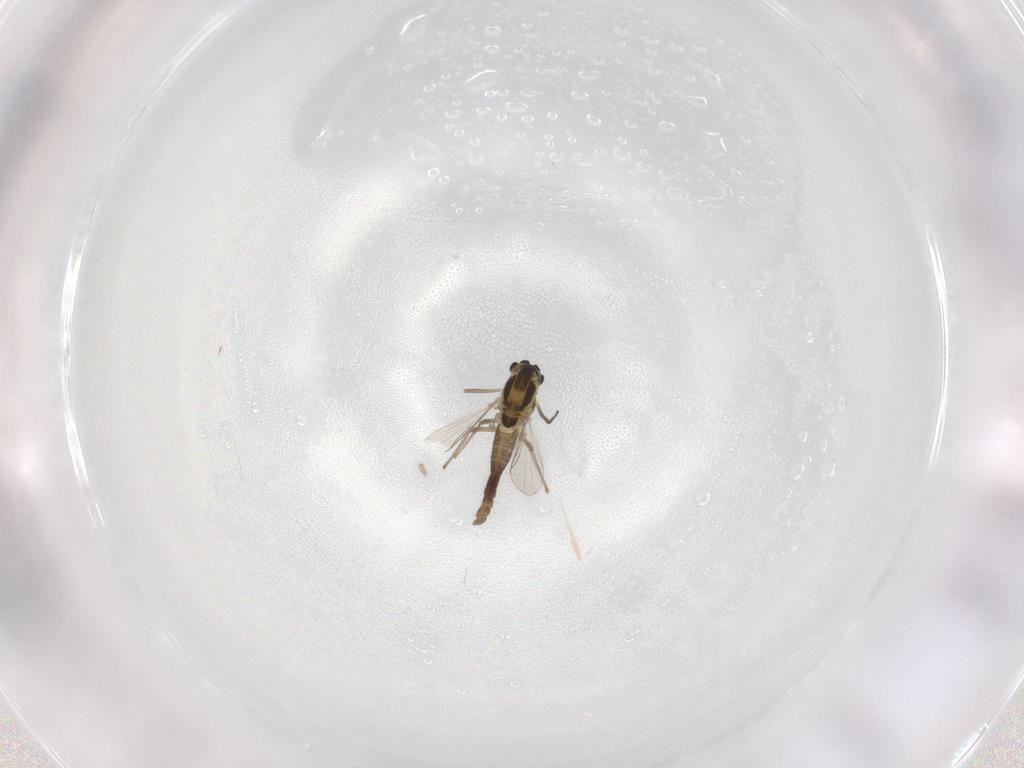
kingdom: Animalia
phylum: Arthropoda
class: Insecta
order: Diptera
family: Chironomidae
